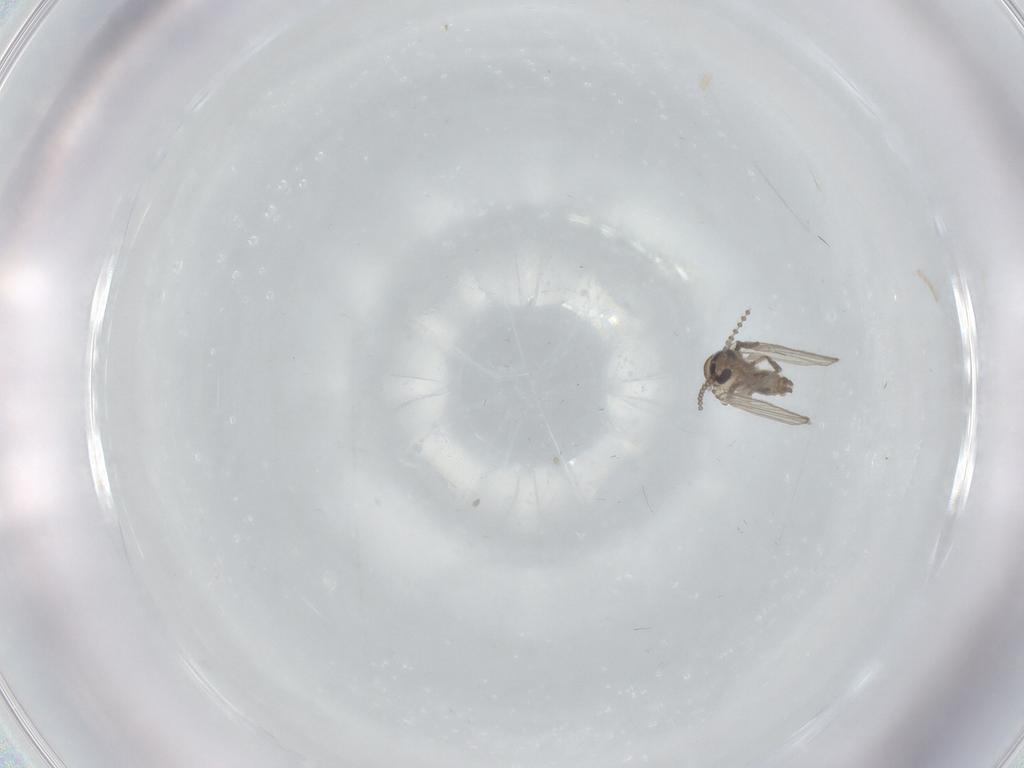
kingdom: Animalia
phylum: Arthropoda
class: Insecta
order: Diptera
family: Psychodidae
